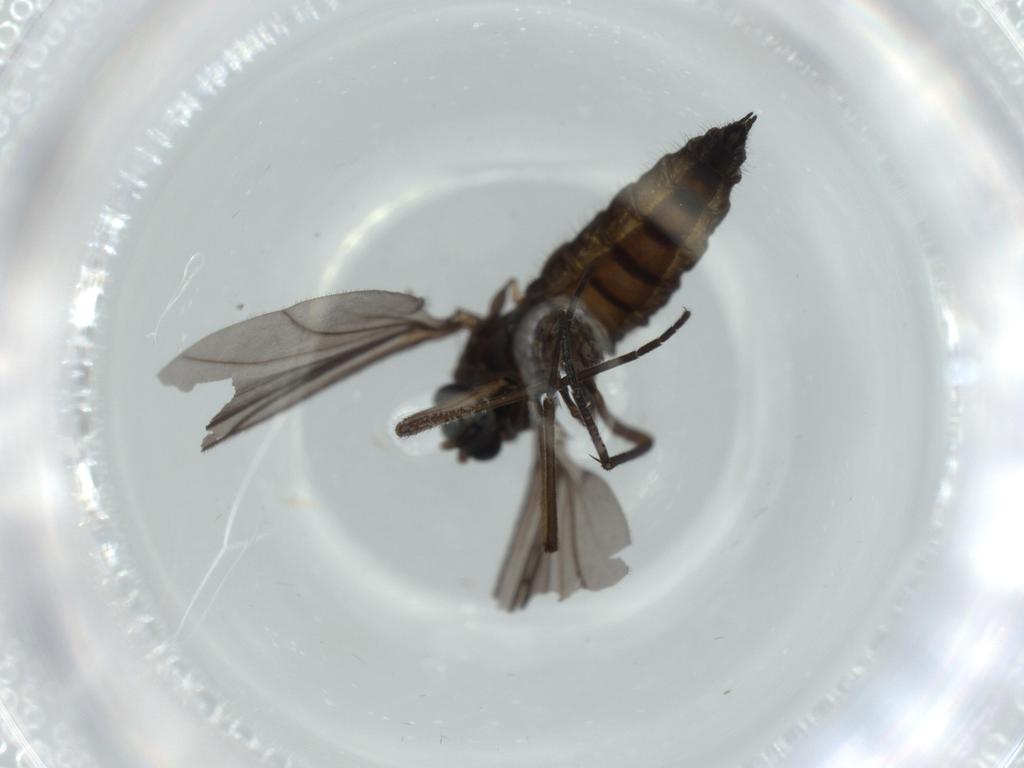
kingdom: Animalia
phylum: Arthropoda
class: Insecta
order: Diptera
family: Sciaridae
